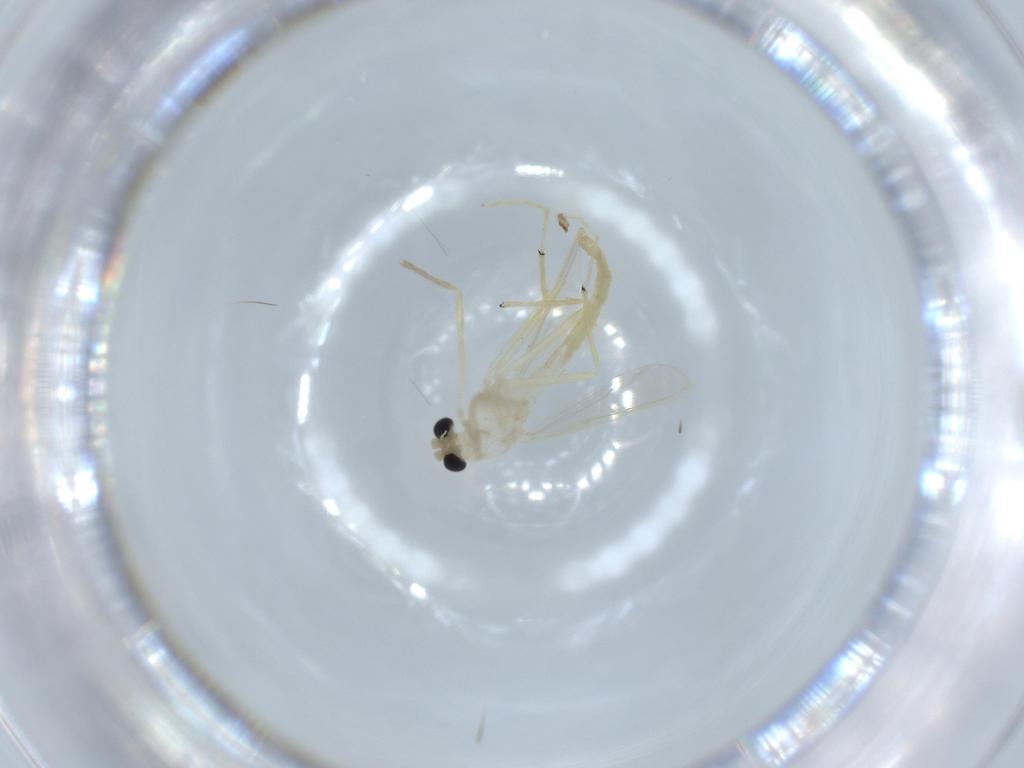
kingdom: Animalia
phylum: Arthropoda
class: Insecta
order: Diptera
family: Chironomidae
